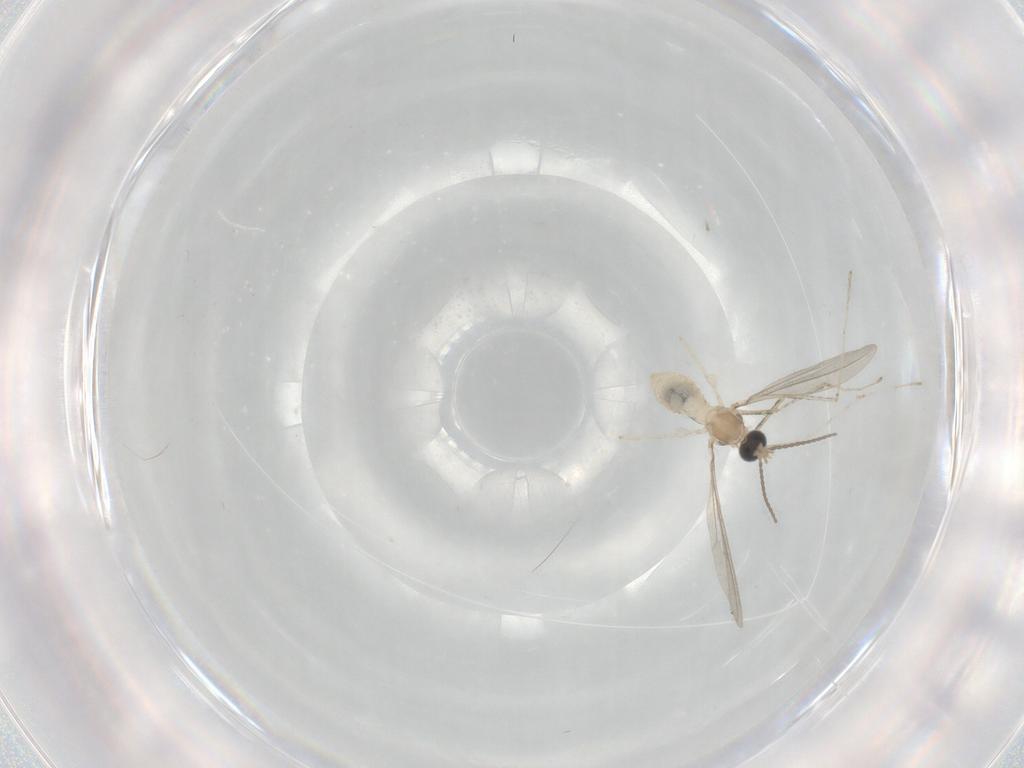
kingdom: Animalia
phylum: Arthropoda
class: Insecta
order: Diptera
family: Cecidomyiidae
